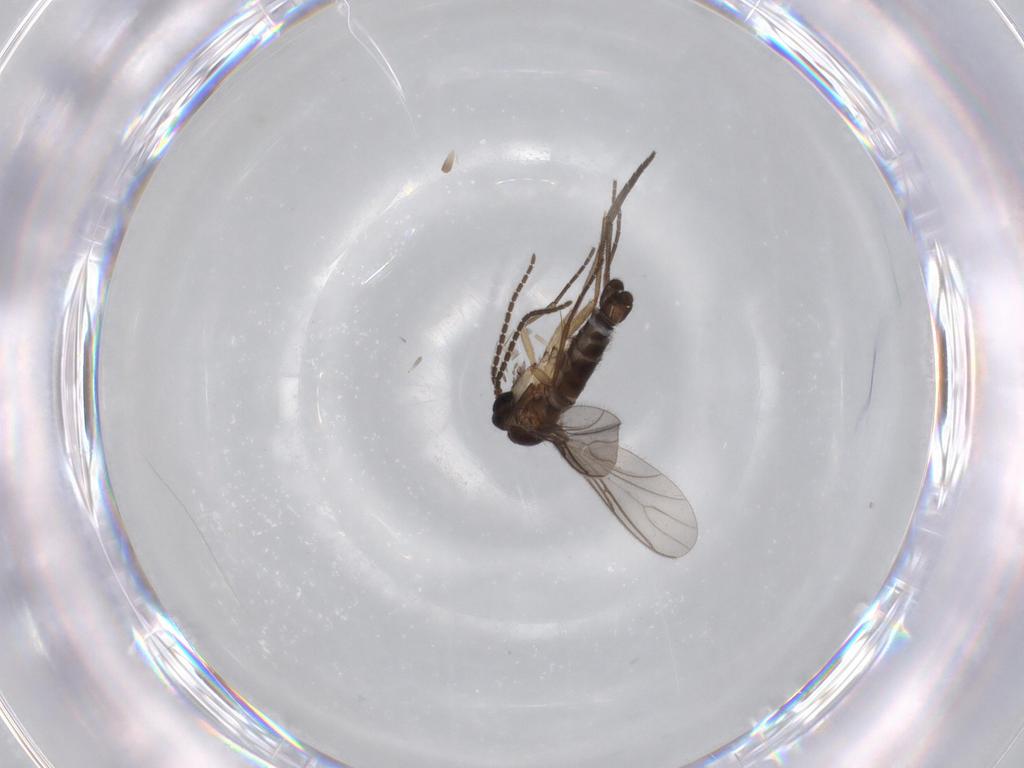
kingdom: Animalia
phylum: Arthropoda
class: Insecta
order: Diptera
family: Sciaridae
